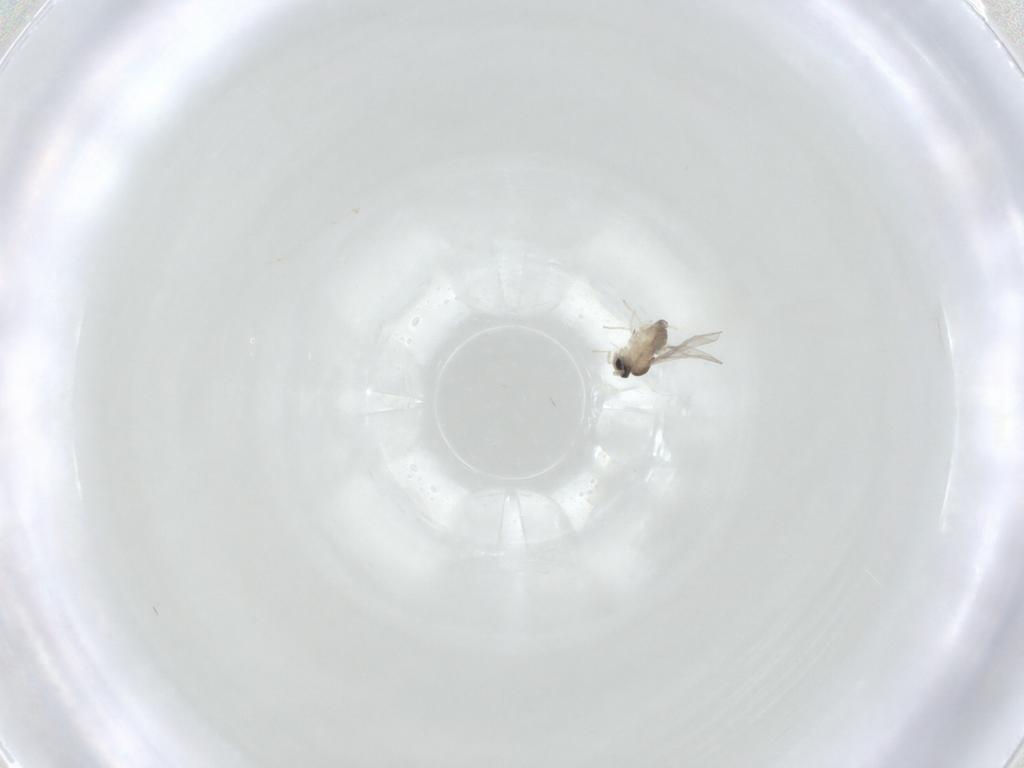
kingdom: Animalia
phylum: Arthropoda
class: Insecta
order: Diptera
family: Cecidomyiidae
